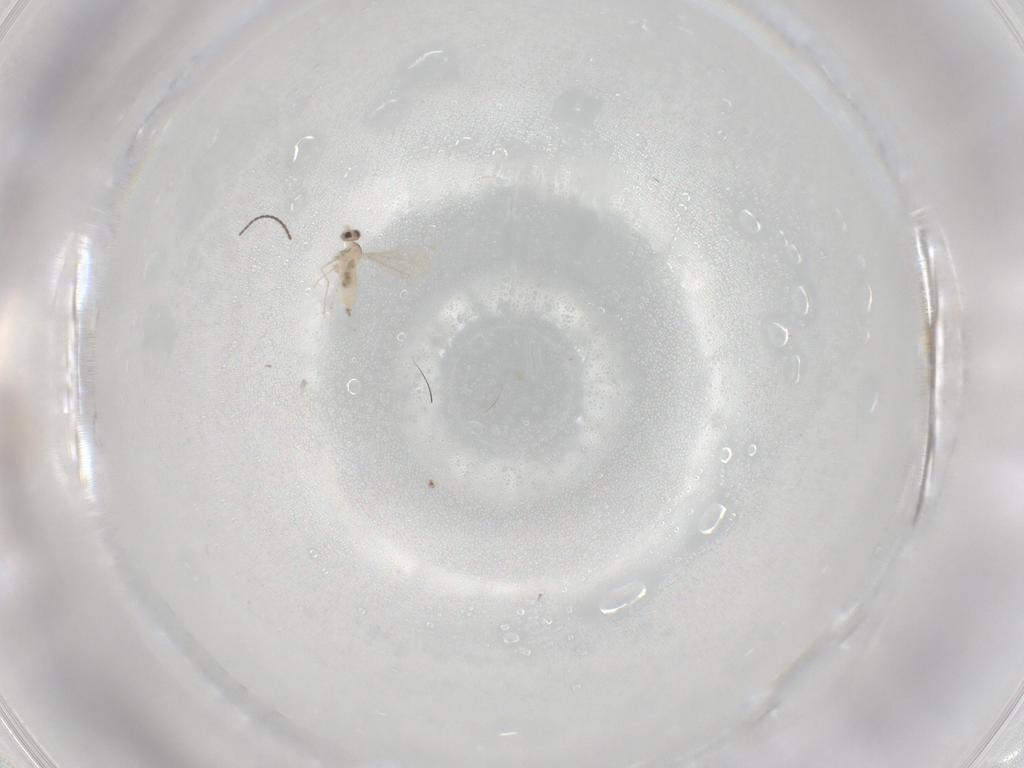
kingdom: Animalia
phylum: Arthropoda
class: Insecta
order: Diptera
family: Cecidomyiidae
